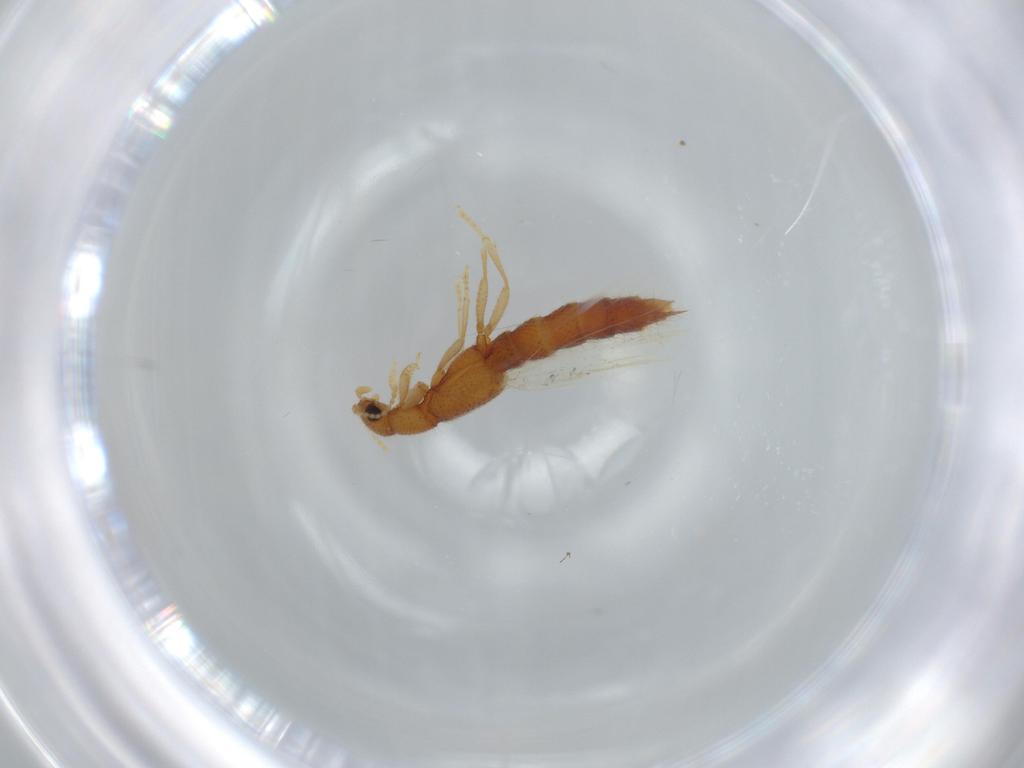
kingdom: Animalia
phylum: Arthropoda
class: Insecta
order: Coleoptera
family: Staphylinidae
